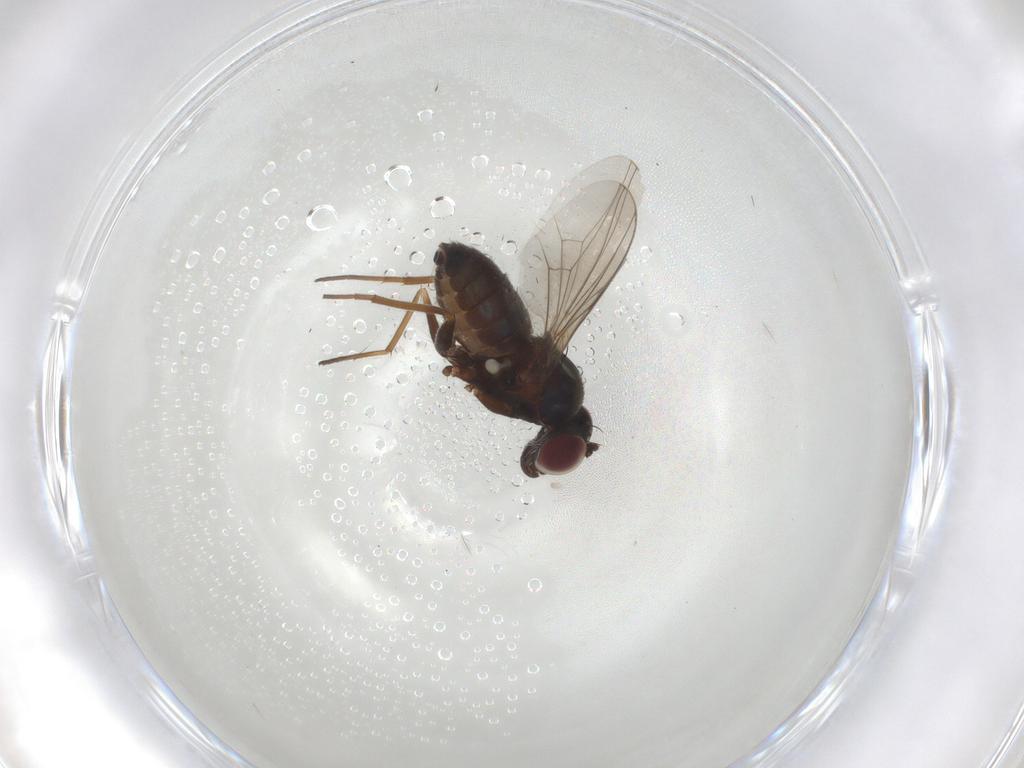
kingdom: Animalia
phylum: Arthropoda
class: Insecta
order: Diptera
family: Dolichopodidae
